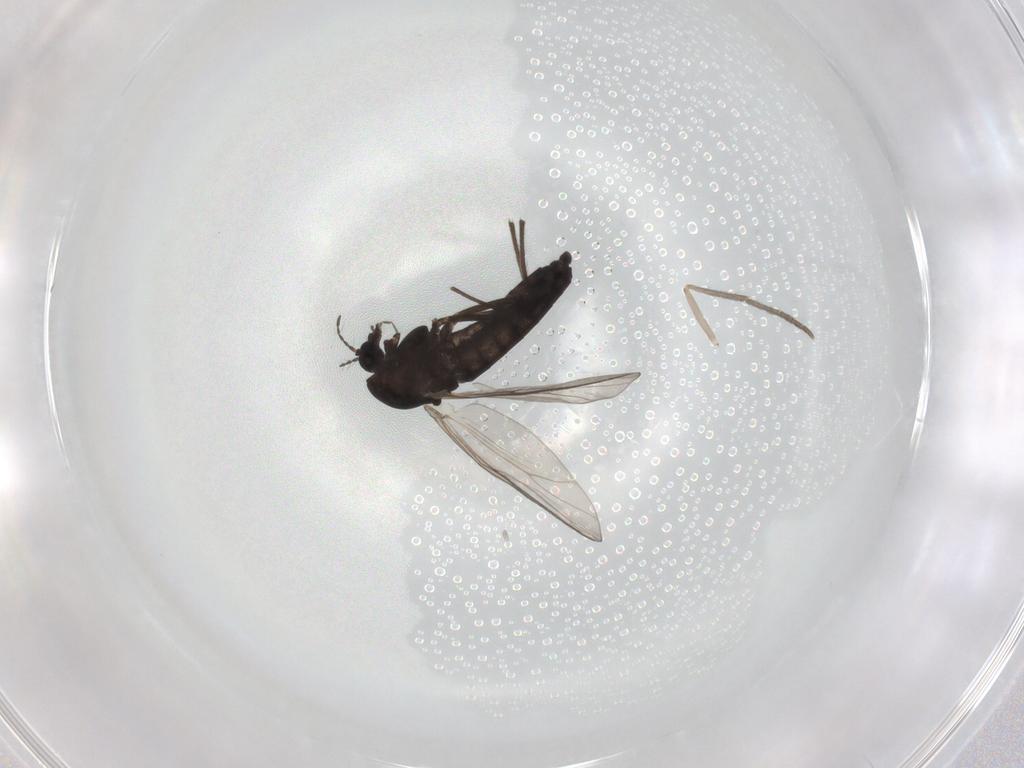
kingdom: Animalia
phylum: Arthropoda
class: Insecta
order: Diptera
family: Chironomidae
